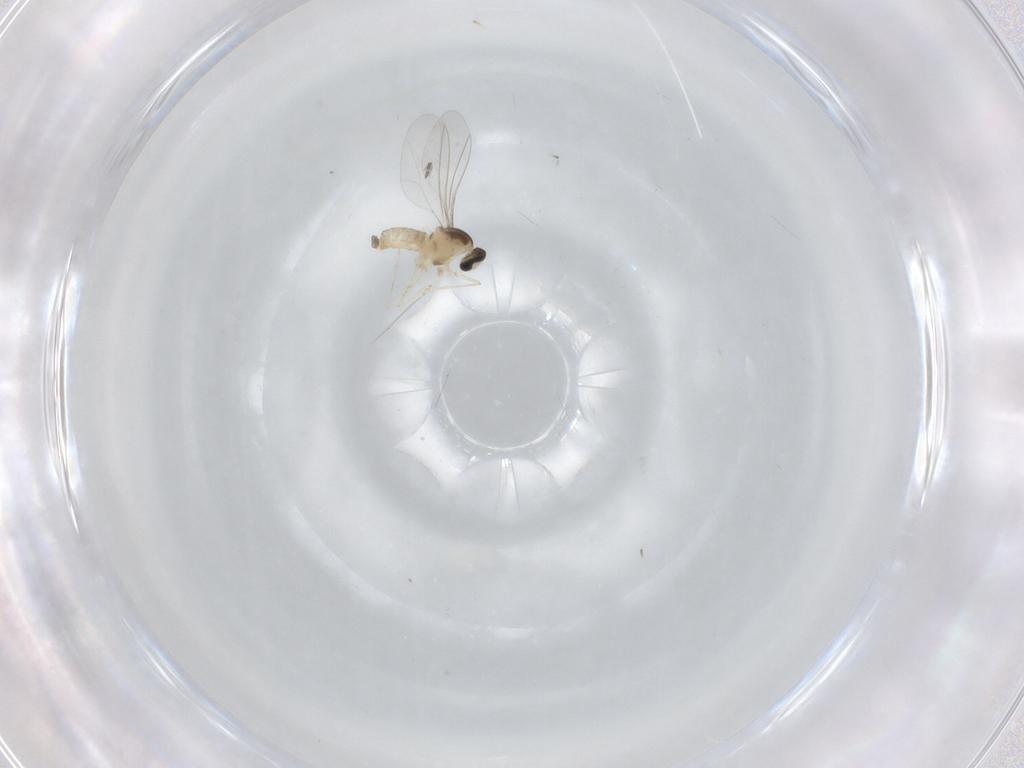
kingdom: Animalia
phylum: Arthropoda
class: Insecta
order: Diptera
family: Cecidomyiidae
